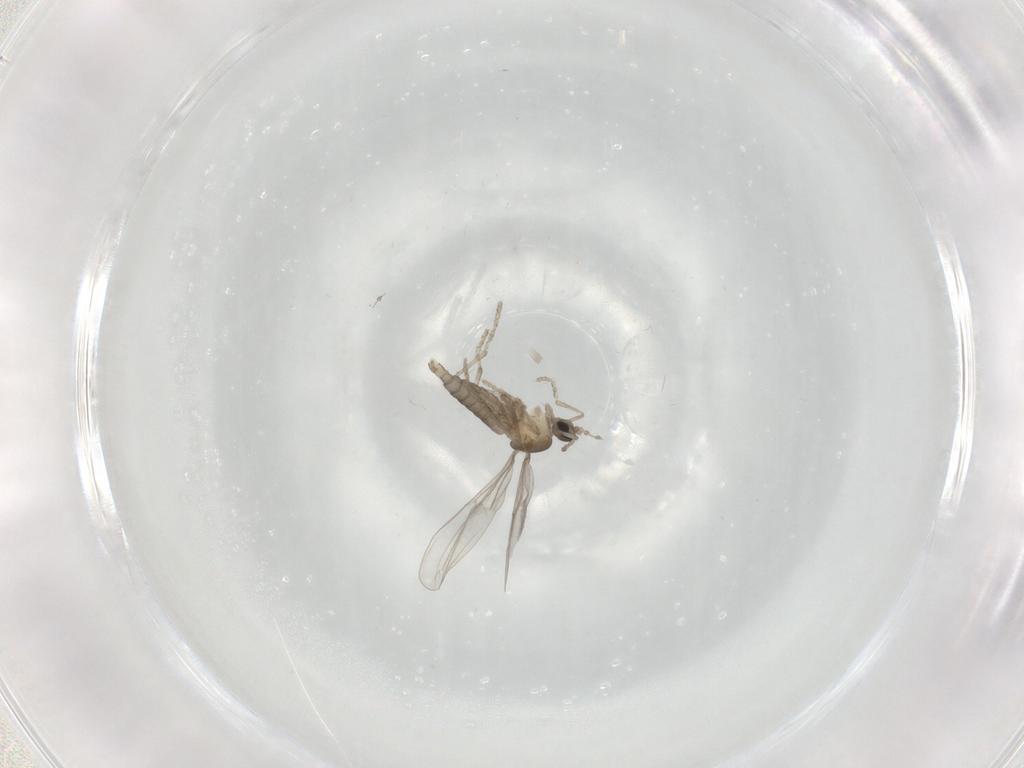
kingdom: Animalia
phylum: Arthropoda
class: Insecta
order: Diptera
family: Cecidomyiidae
